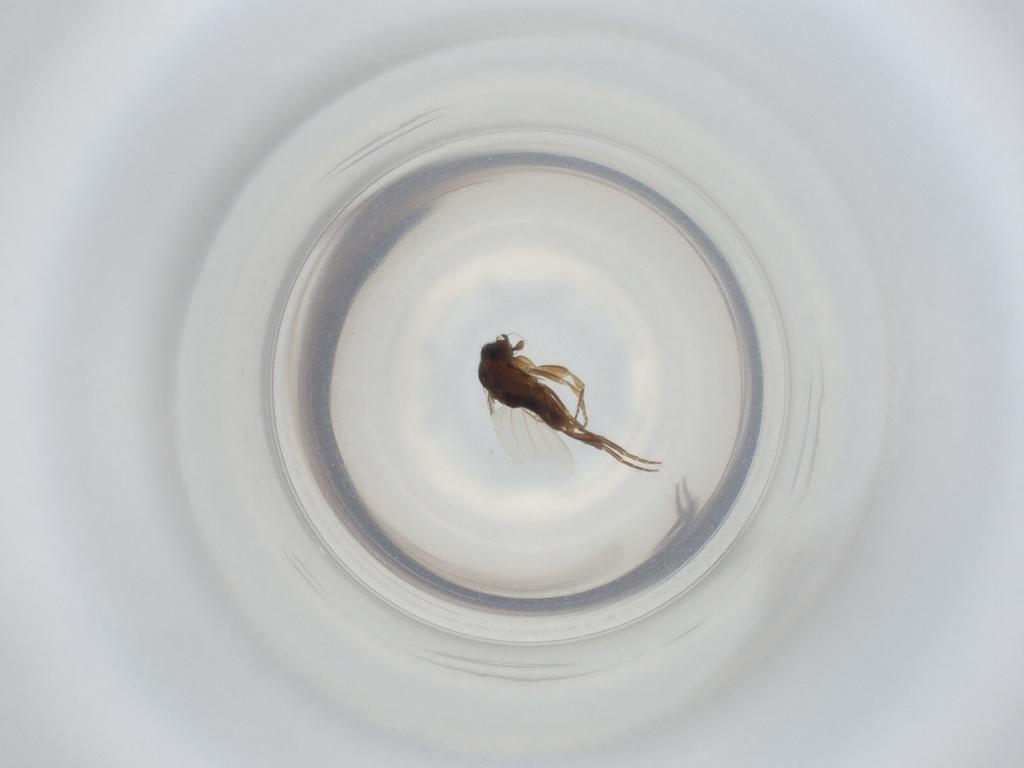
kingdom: Animalia
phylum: Arthropoda
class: Insecta
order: Diptera
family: Phoridae
